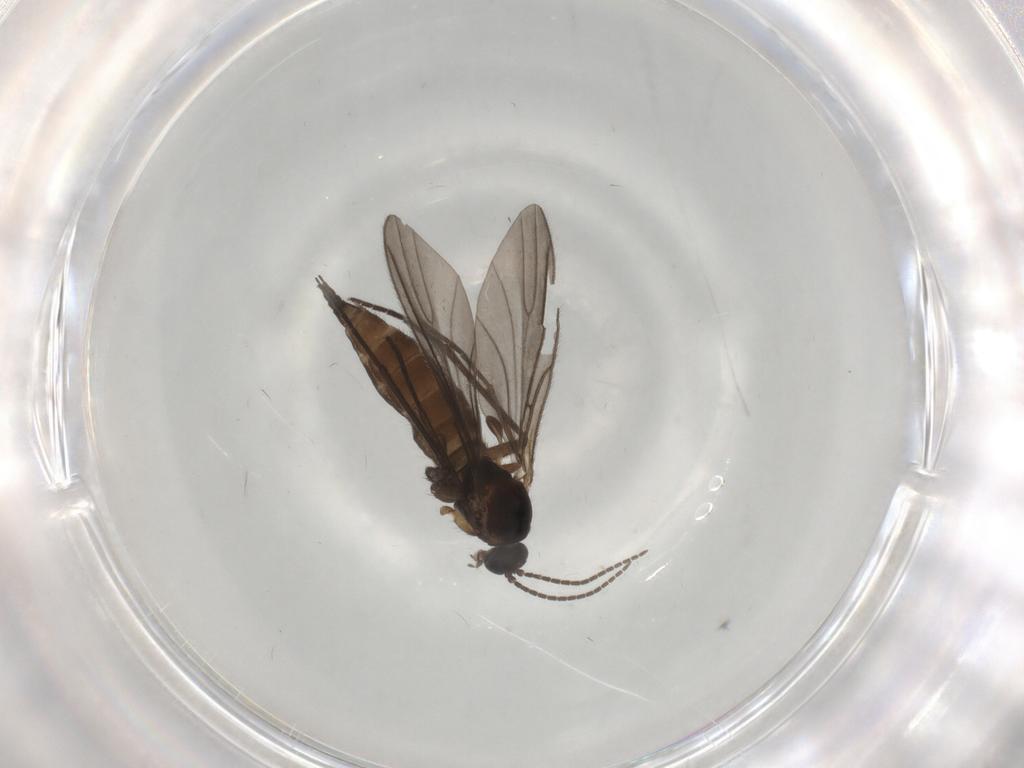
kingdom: Animalia
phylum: Arthropoda
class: Insecta
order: Diptera
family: Sciaridae
